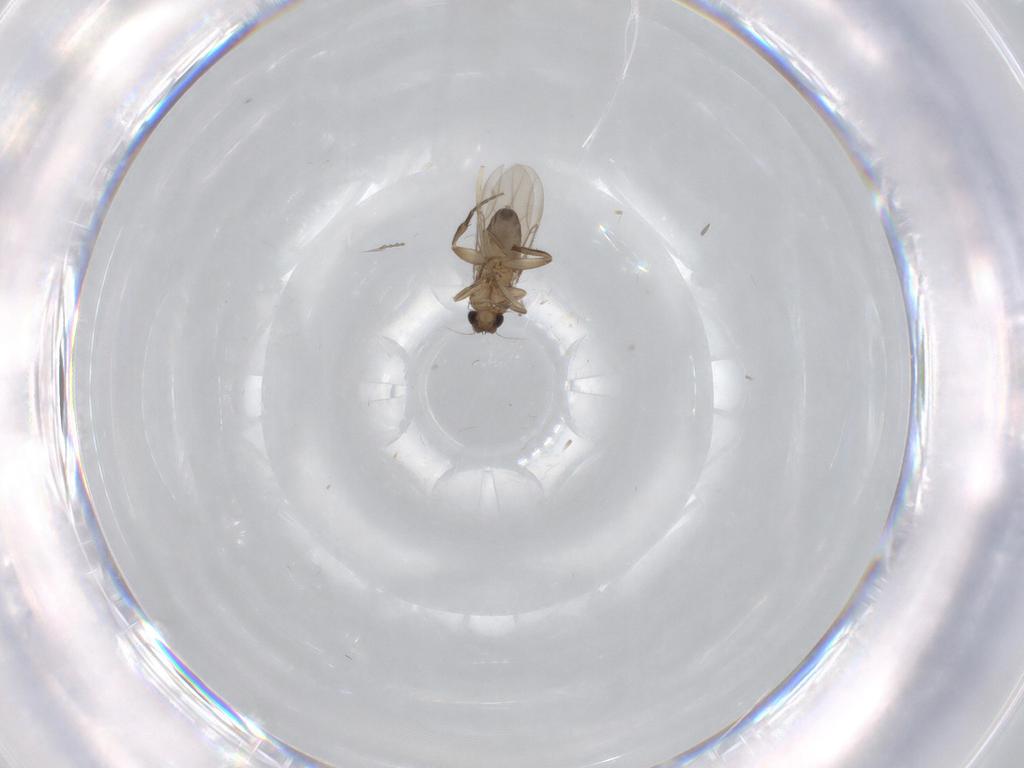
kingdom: Animalia
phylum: Arthropoda
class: Insecta
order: Diptera
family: Phoridae
